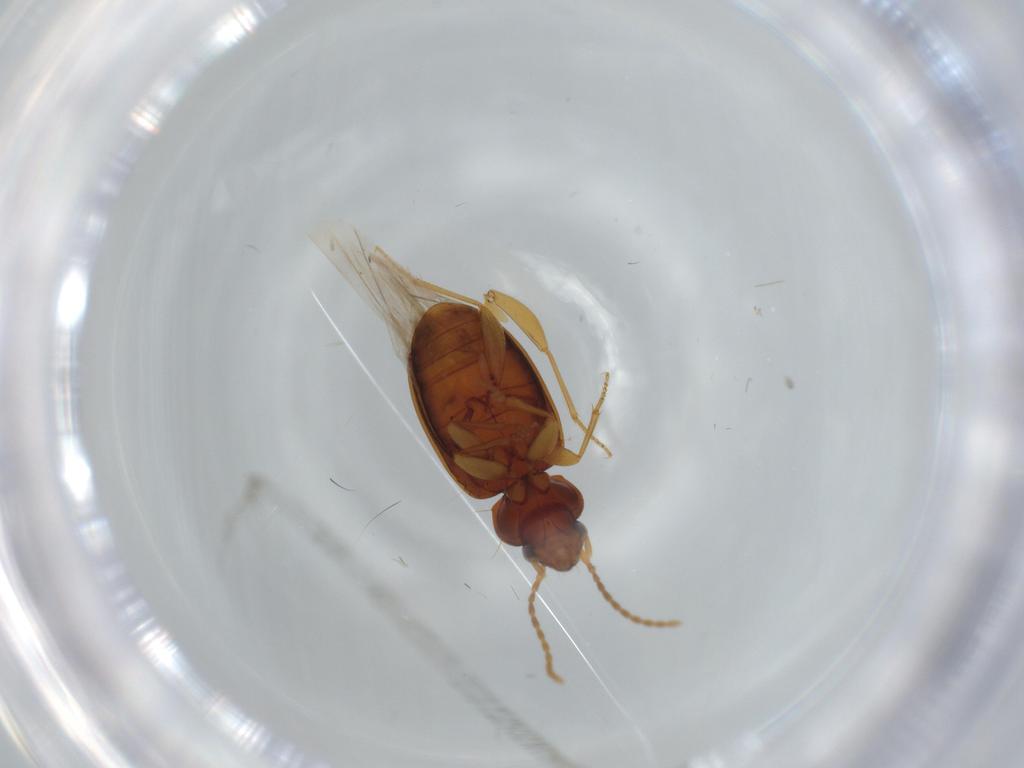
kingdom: Animalia
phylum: Arthropoda
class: Insecta
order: Coleoptera
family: Carabidae
